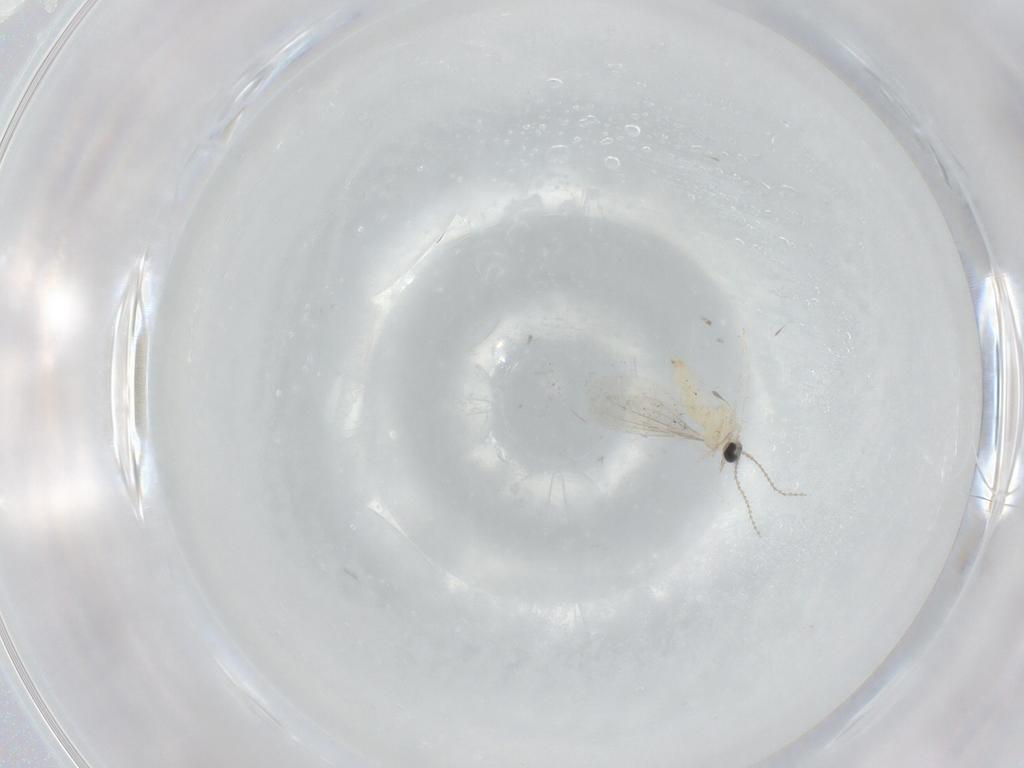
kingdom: Animalia
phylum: Arthropoda
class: Insecta
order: Diptera
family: Cecidomyiidae
